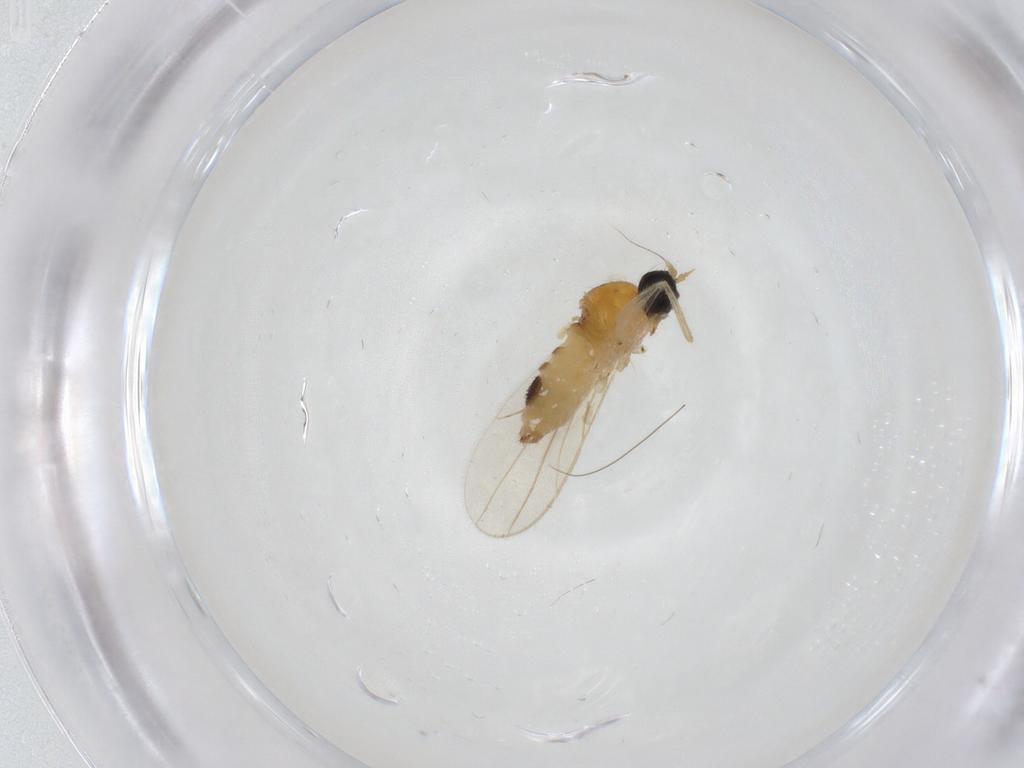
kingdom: Animalia
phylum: Arthropoda
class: Insecta
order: Diptera
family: Hybotidae
